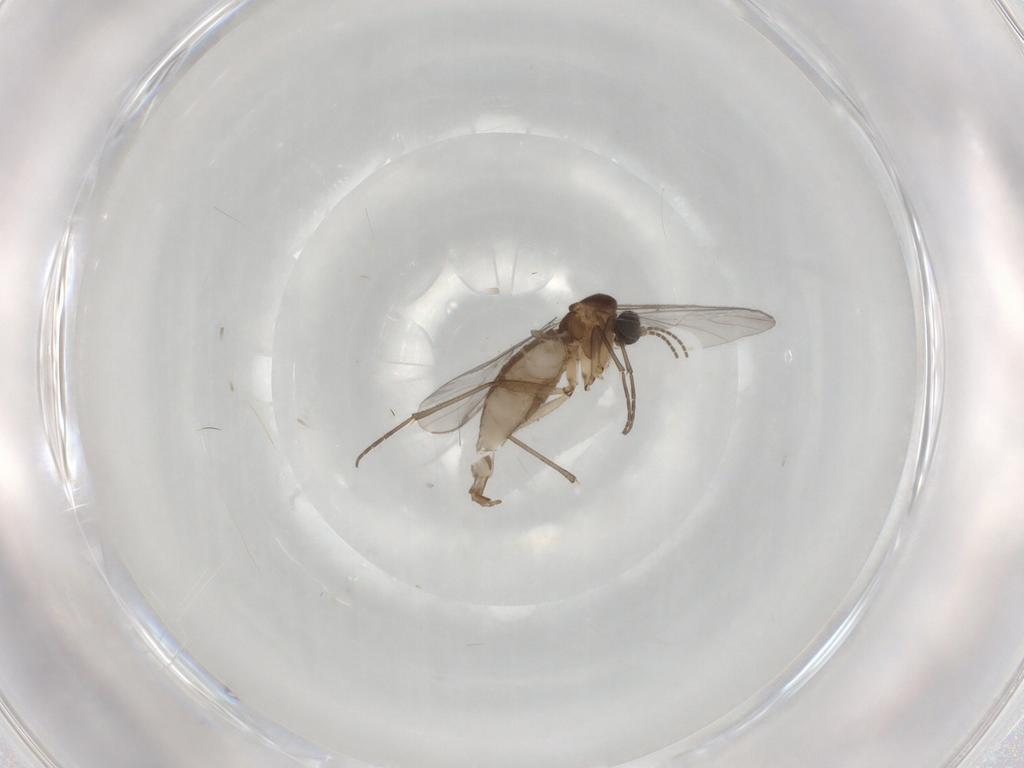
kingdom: Animalia
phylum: Arthropoda
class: Insecta
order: Diptera
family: Sciaridae
